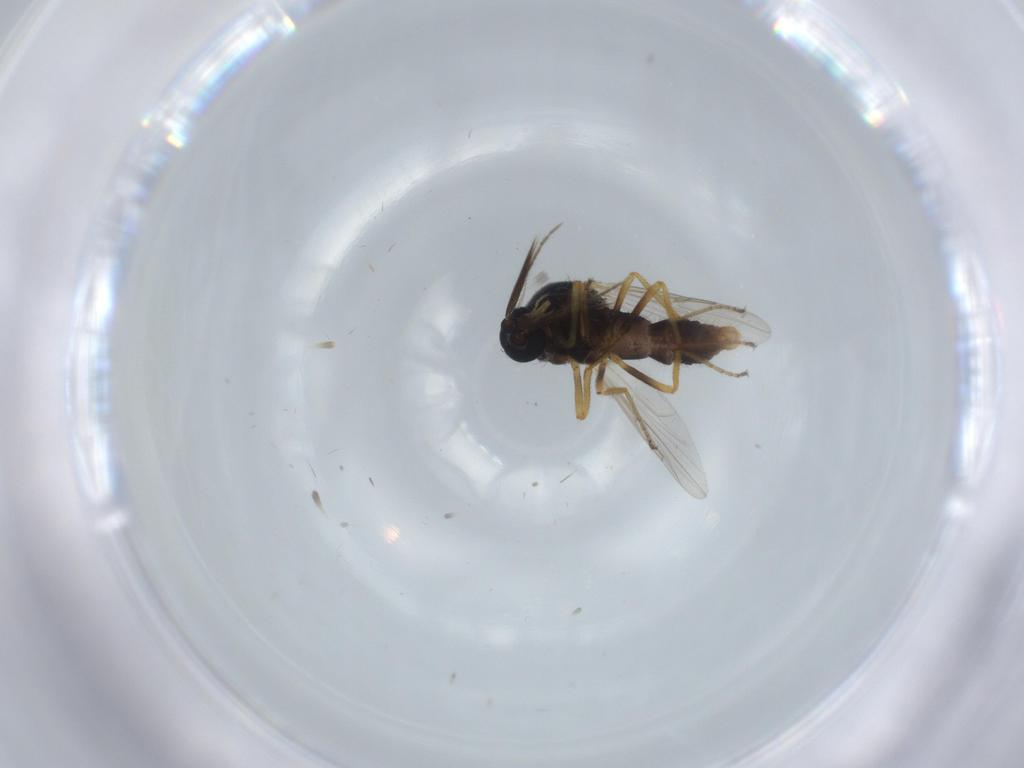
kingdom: Animalia
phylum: Arthropoda
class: Insecta
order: Diptera
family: Ceratopogonidae
